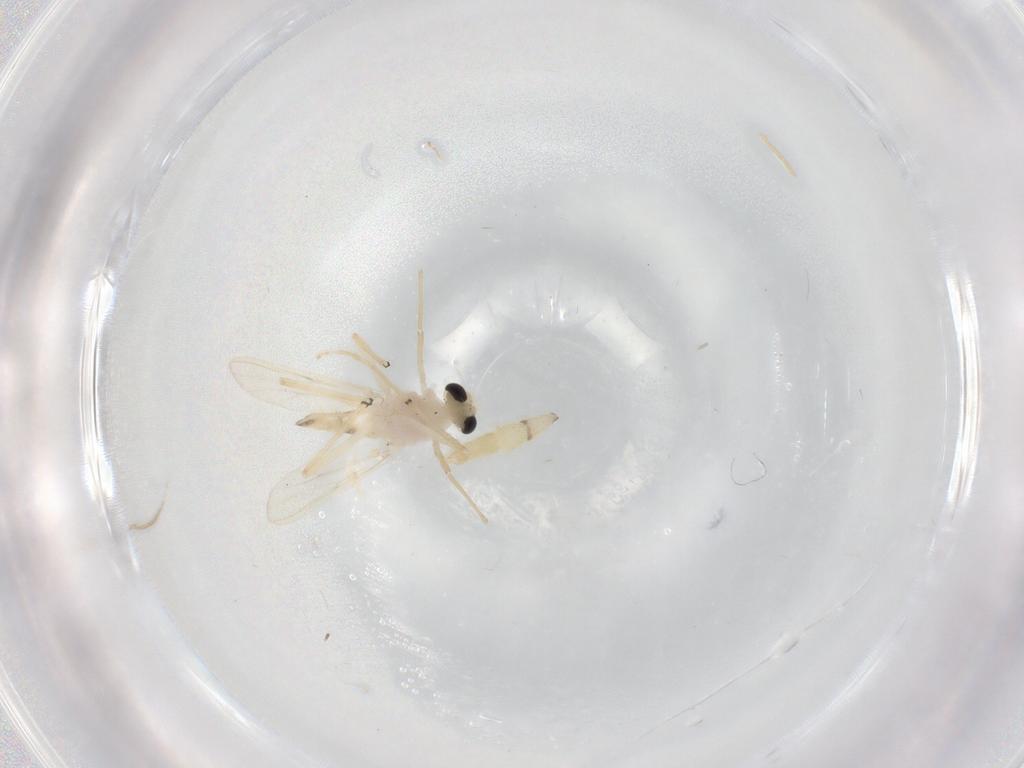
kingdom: Animalia
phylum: Arthropoda
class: Insecta
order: Diptera
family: Chironomidae
